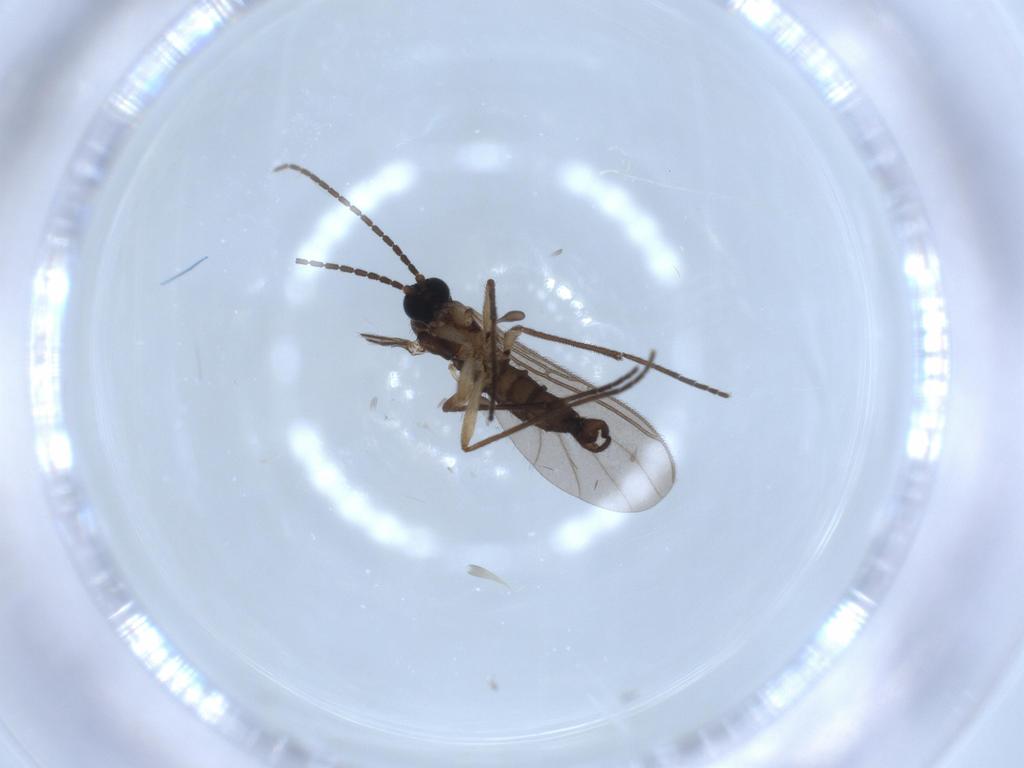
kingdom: Animalia
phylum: Arthropoda
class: Insecta
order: Diptera
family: Sciaridae
